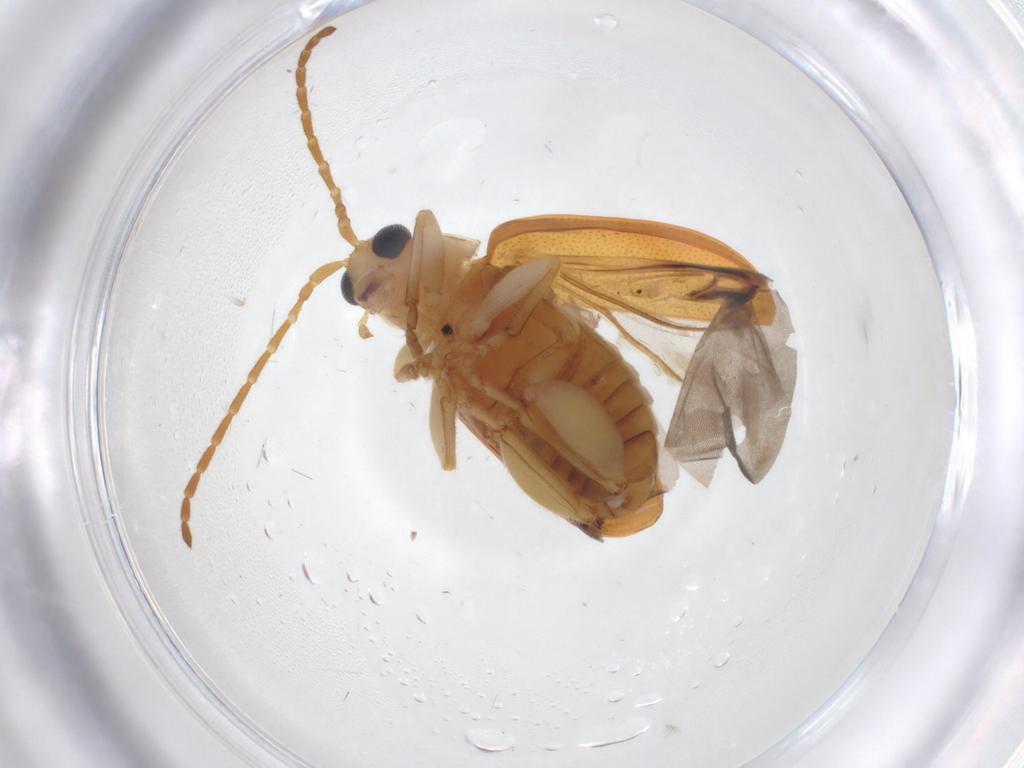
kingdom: Animalia
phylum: Arthropoda
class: Insecta
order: Coleoptera
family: Chrysomelidae
